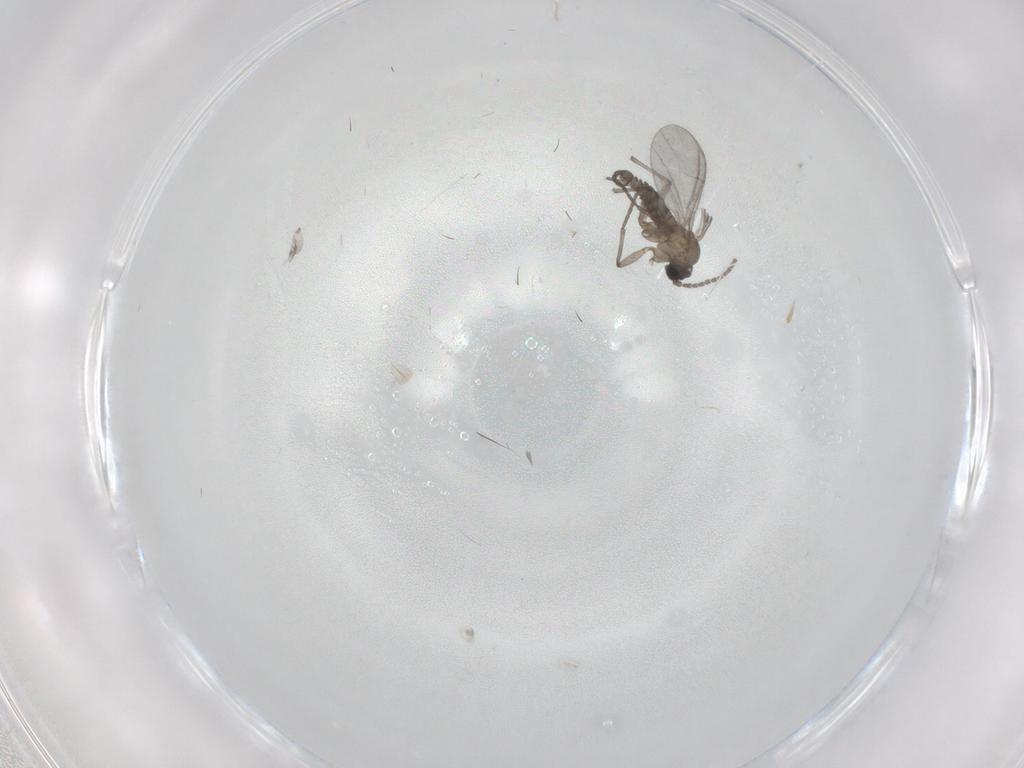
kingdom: Animalia
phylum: Arthropoda
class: Insecta
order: Diptera
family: Sciaridae
